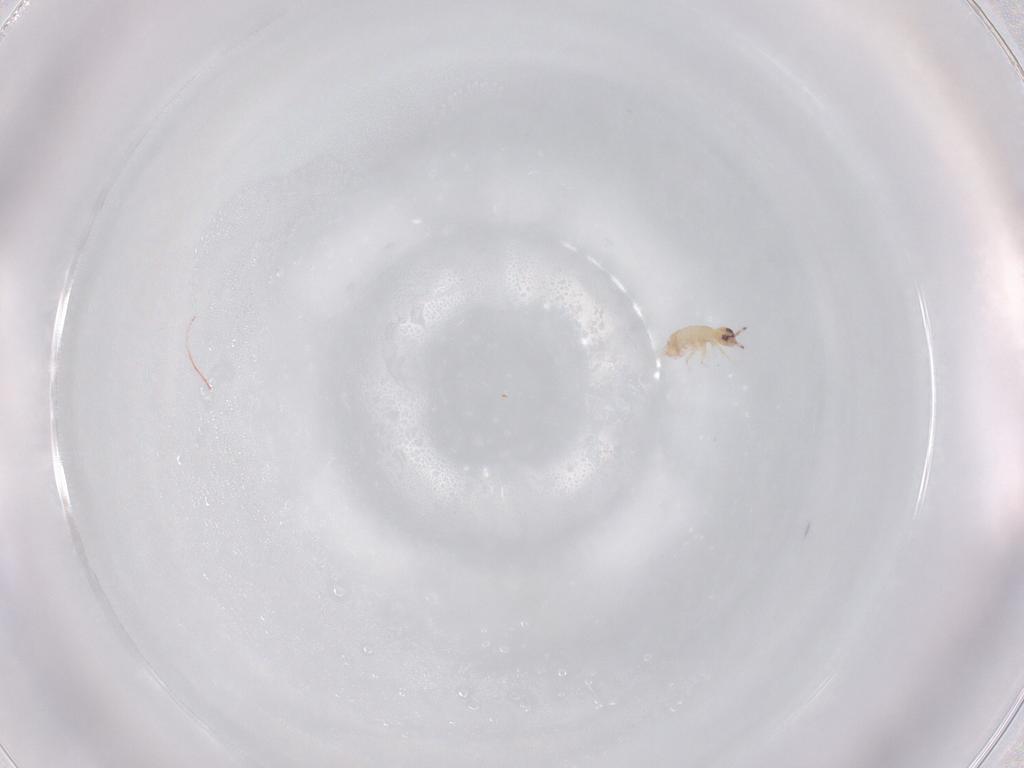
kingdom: Animalia
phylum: Arthropoda
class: Collembola
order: Entomobryomorpha
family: Entomobryidae
